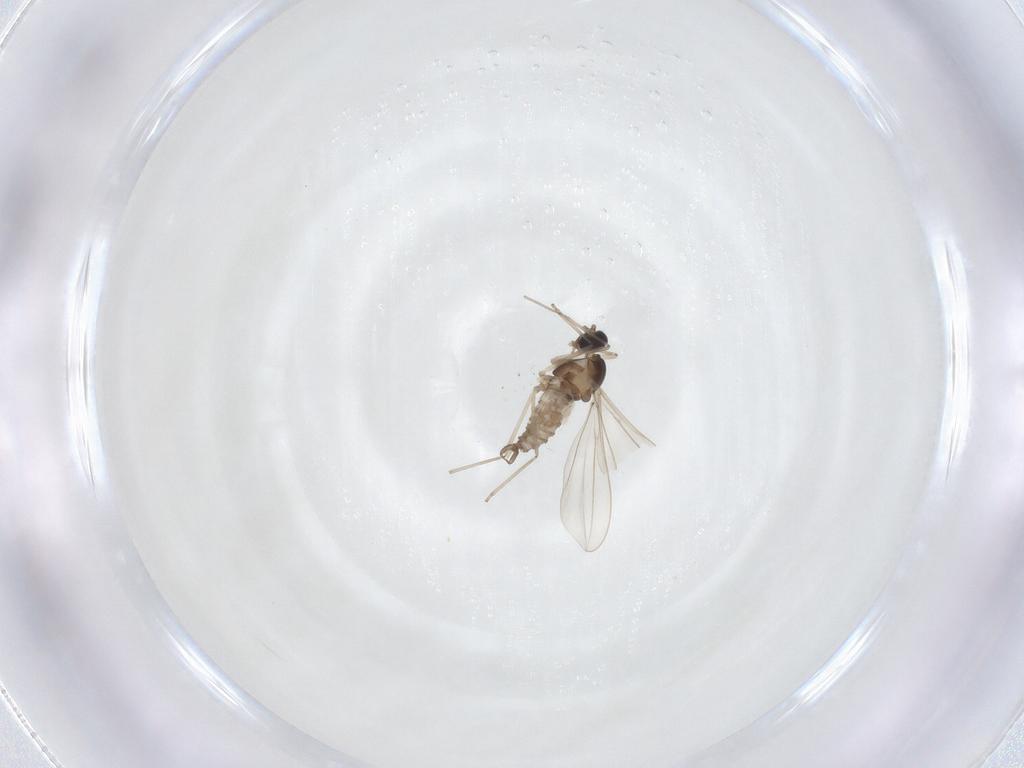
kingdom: Animalia
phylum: Arthropoda
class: Insecta
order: Diptera
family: Cecidomyiidae
